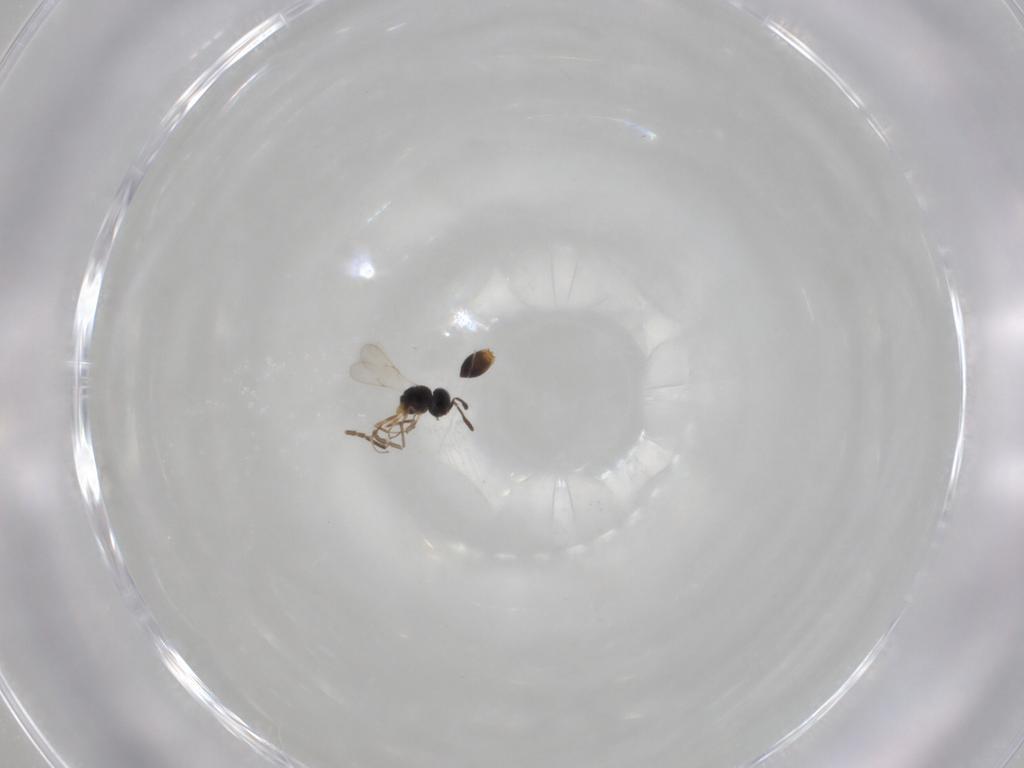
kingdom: Animalia
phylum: Arthropoda
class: Insecta
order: Hymenoptera
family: Scelionidae
